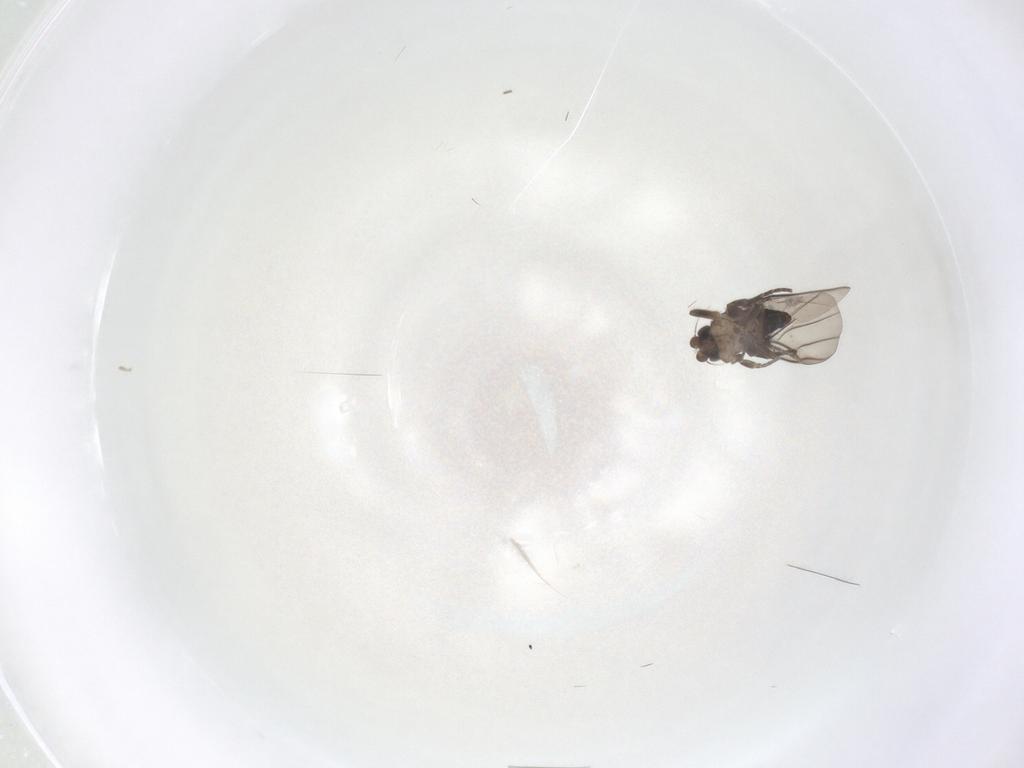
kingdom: Animalia
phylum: Arthropoda
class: Insecta
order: Diptera
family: Cecidomyiidae
